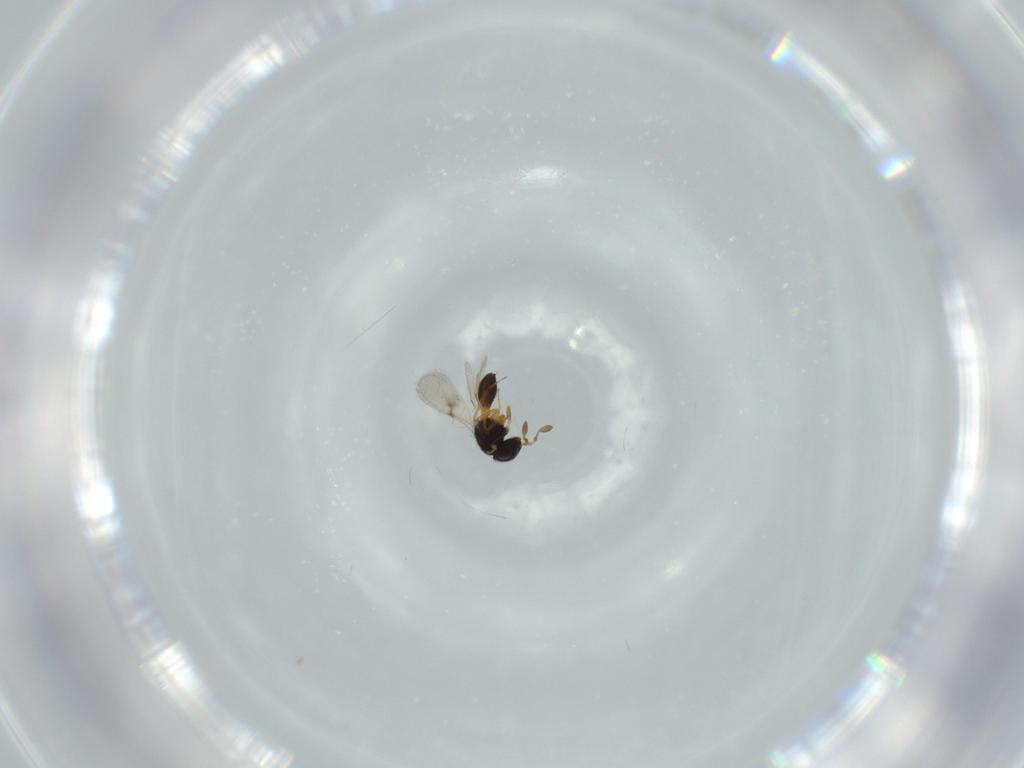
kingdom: Animalia
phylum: Arthropoda
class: Insecta
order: Hymenoptera
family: Scelionidae
